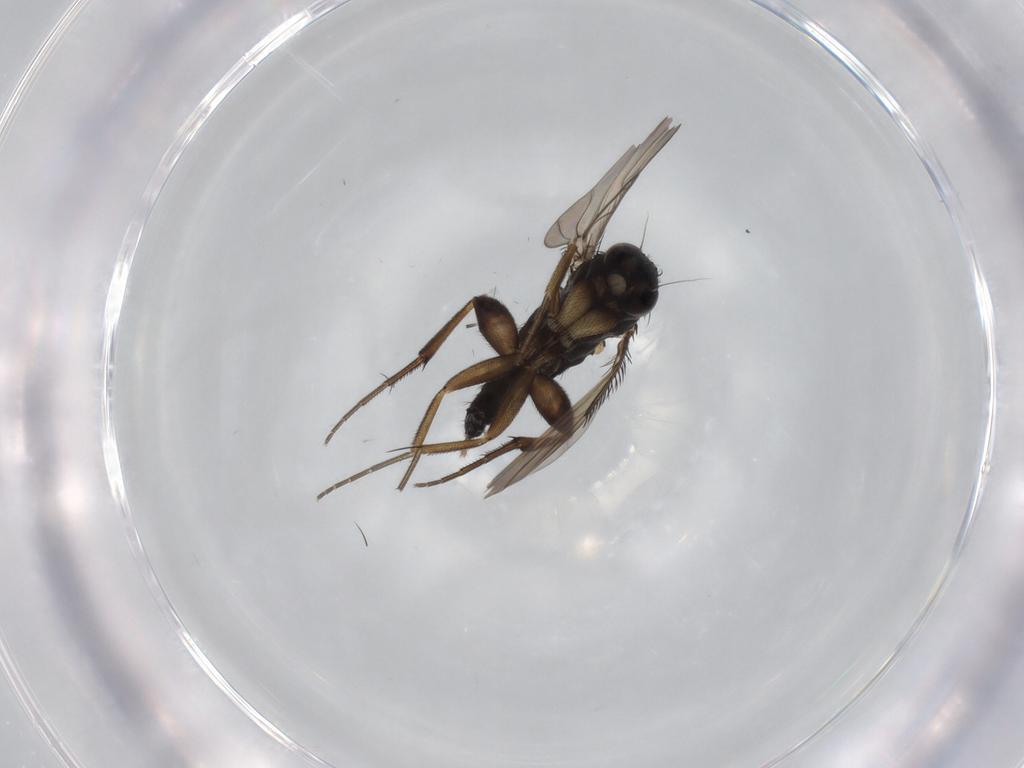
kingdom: Animalia
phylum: Arthropoda
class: Insecta
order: Diptera
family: Phoridae
